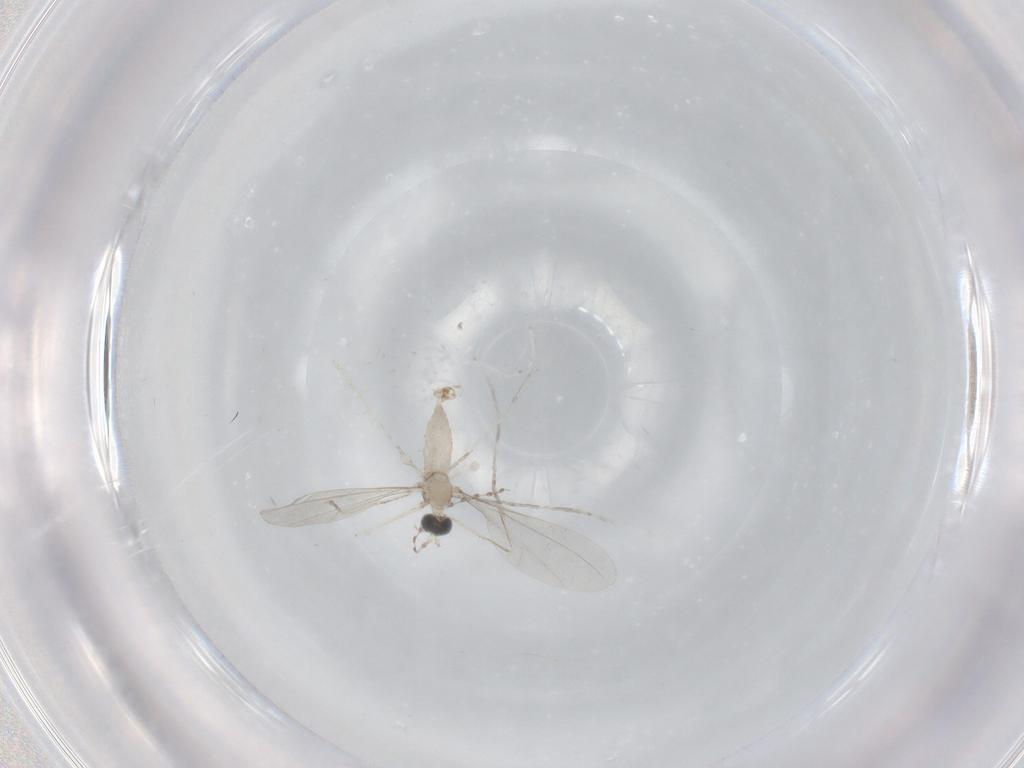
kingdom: Animalia
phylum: Arthropoda
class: Insecta
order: Diptera
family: Cecidomyiidae
